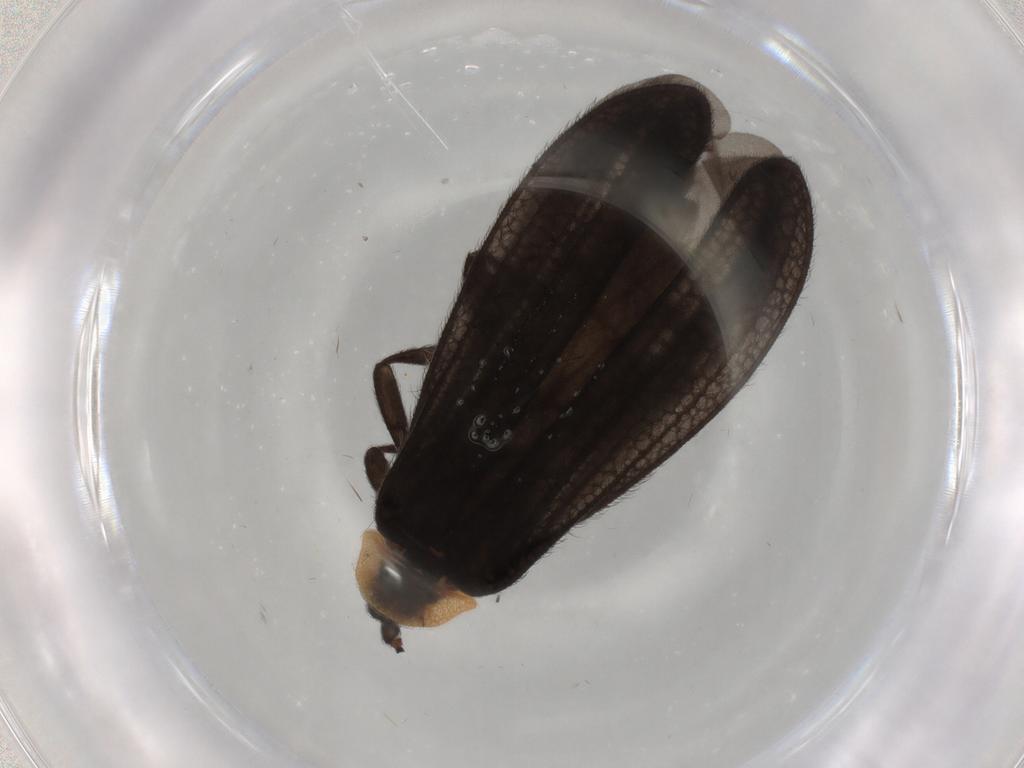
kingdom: Animalia
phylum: Arthropoda
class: Insecta
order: Coleoptera
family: Lycidae
